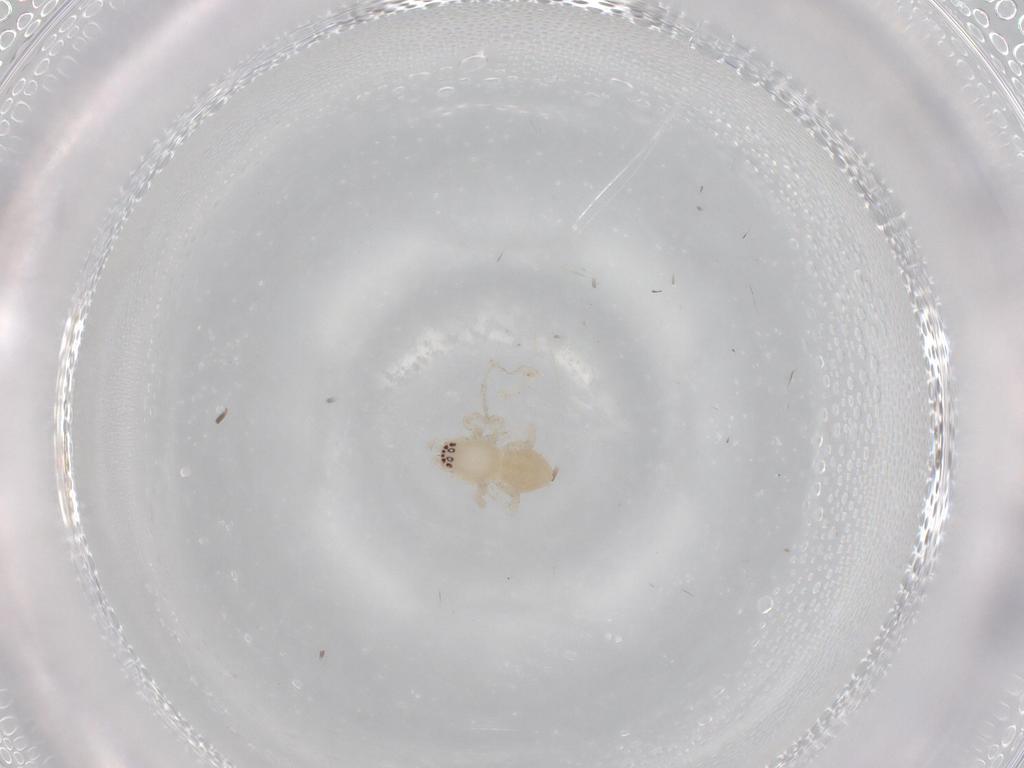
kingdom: Animalia
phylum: Arthropoda
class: Arachnida
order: Araneae
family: Anyphaenidae
